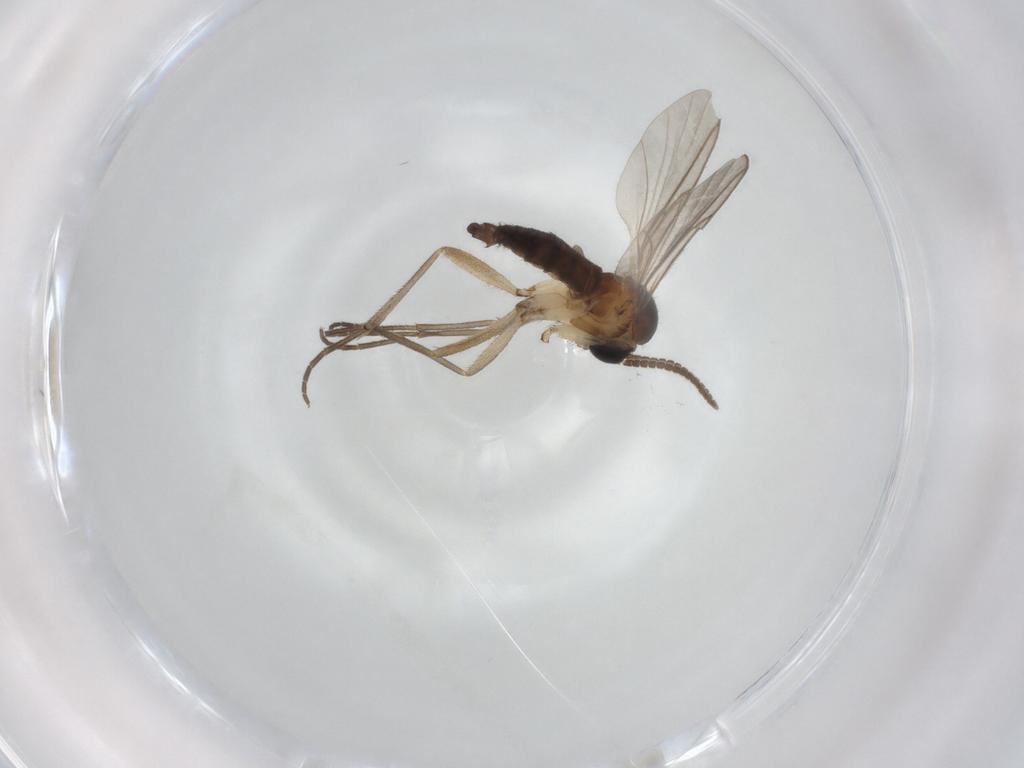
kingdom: Animalia
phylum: Arthropoda
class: Insecta
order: Diptera
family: Sciaridae
